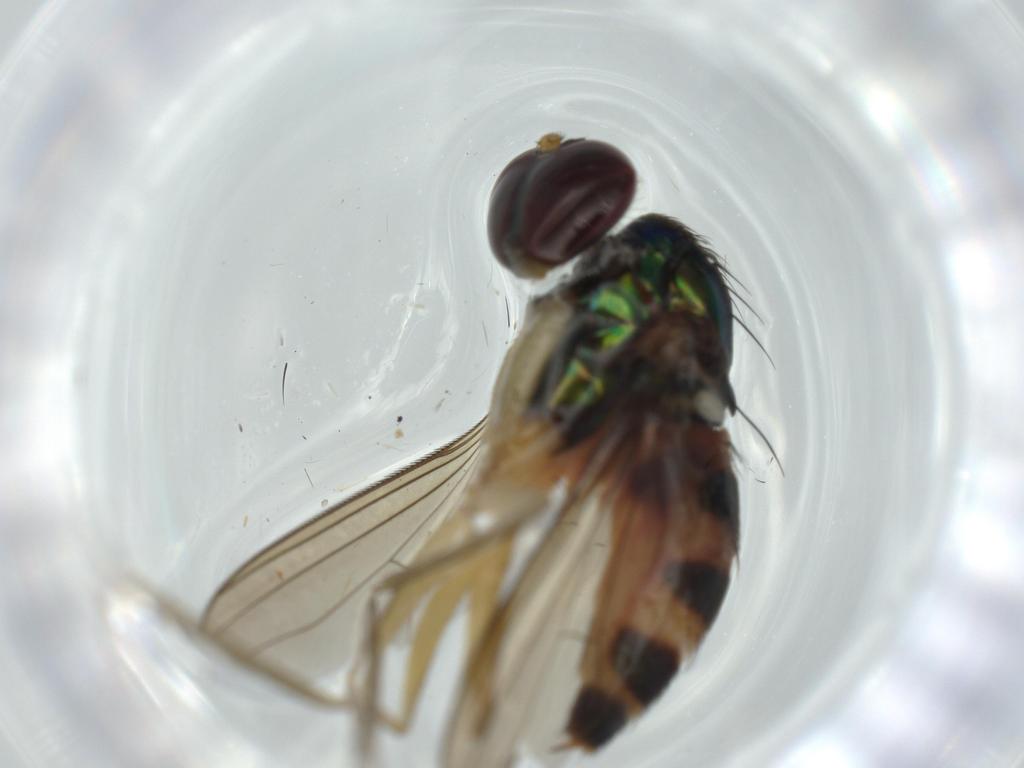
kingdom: Animalia
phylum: Arthropoda
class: Insecta
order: Diptera
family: Dolichopodidae
